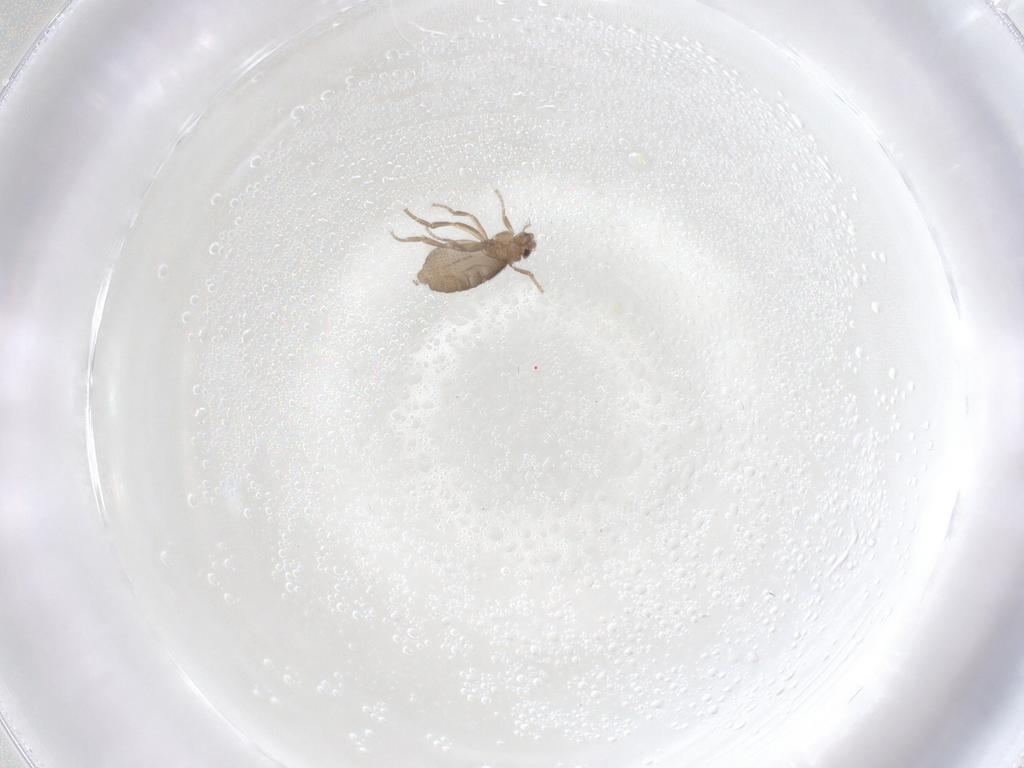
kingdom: Animalia
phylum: Arthropoda
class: Insecta
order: Diptera
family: Phoridae
